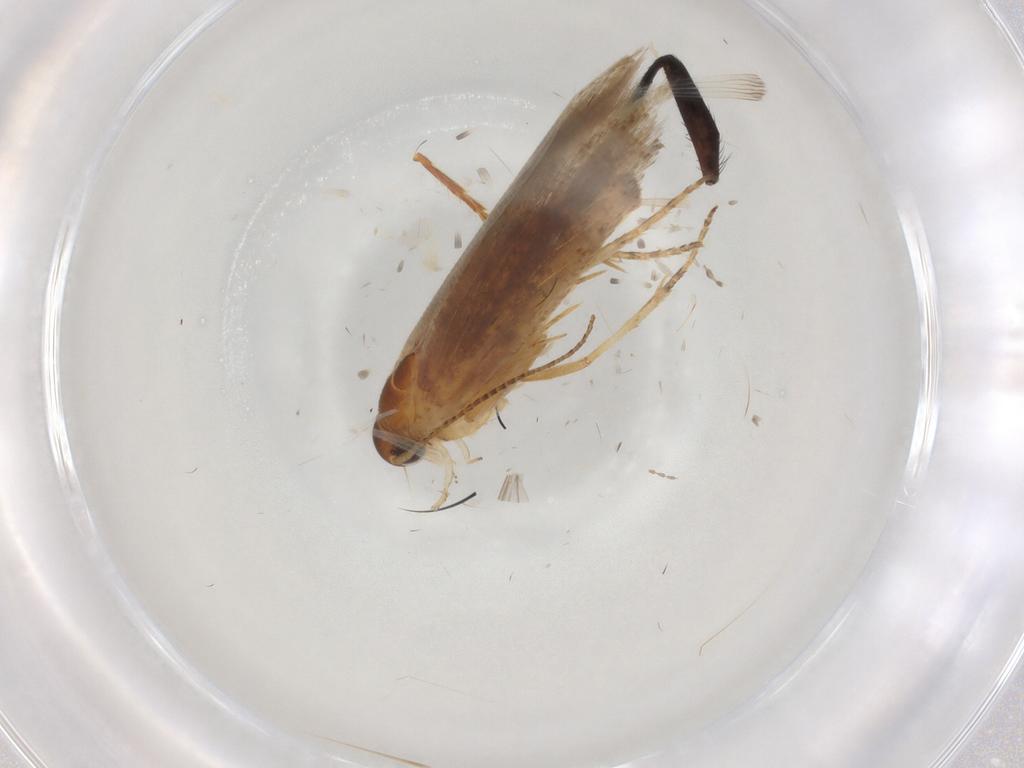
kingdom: Animalia
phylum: Arthropoda
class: Insecta
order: Lepidoptera
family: Gelechiidae
